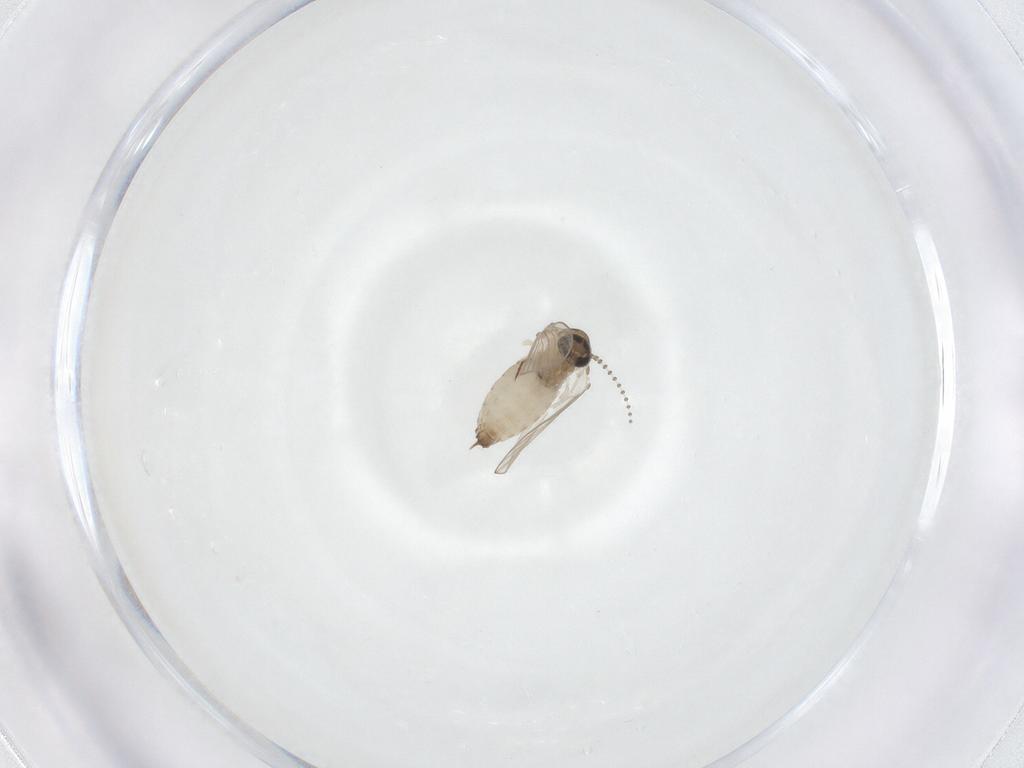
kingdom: Animalia
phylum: Arthropoda
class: Insecta
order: Diptera
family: Psychodidae
